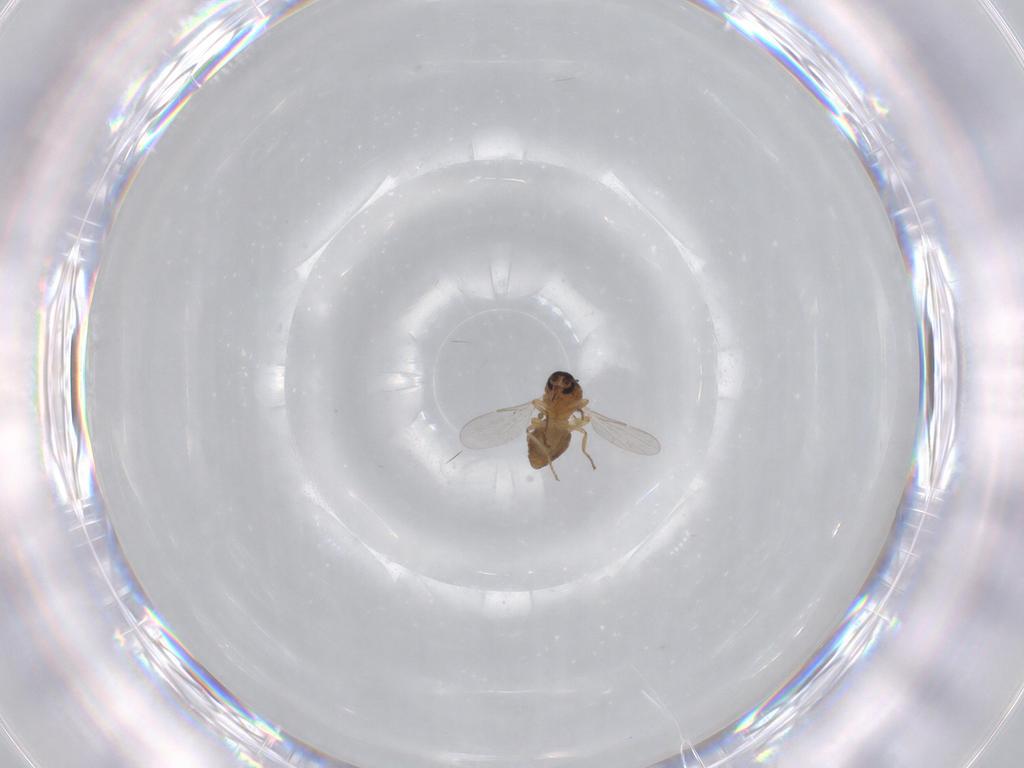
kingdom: Animalia
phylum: Arthropoda
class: Insecta
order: Diptera
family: Ceratopogonidae
